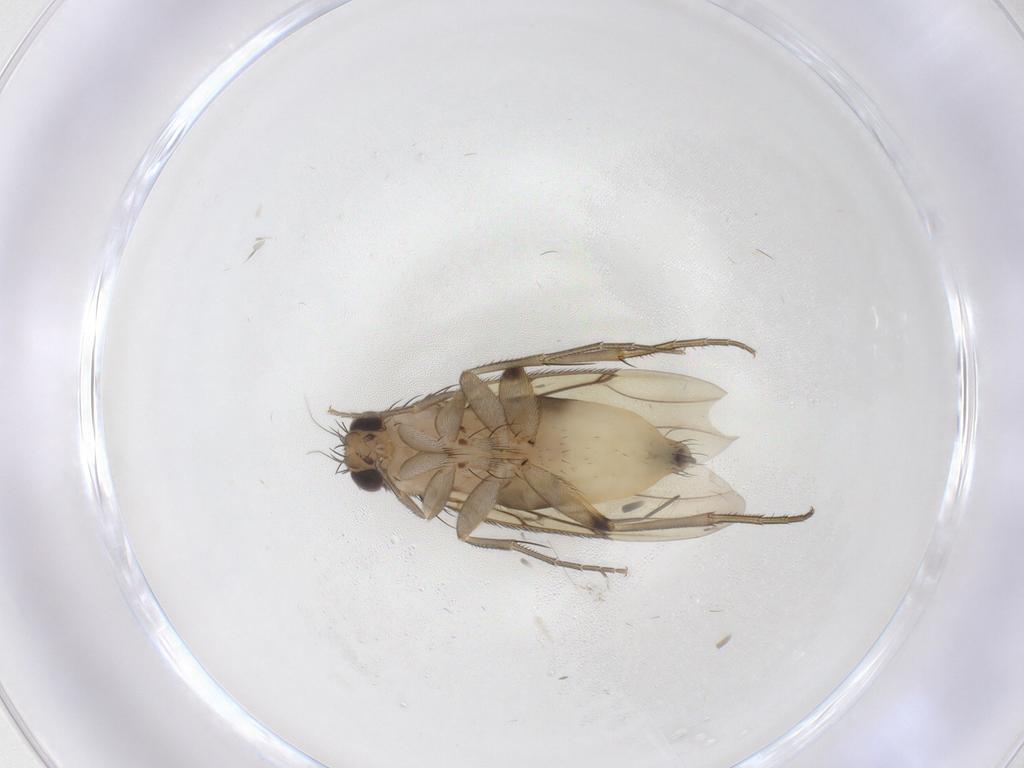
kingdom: Animalia
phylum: Arthropoda
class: Insecta
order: Diptera
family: Phoridae
